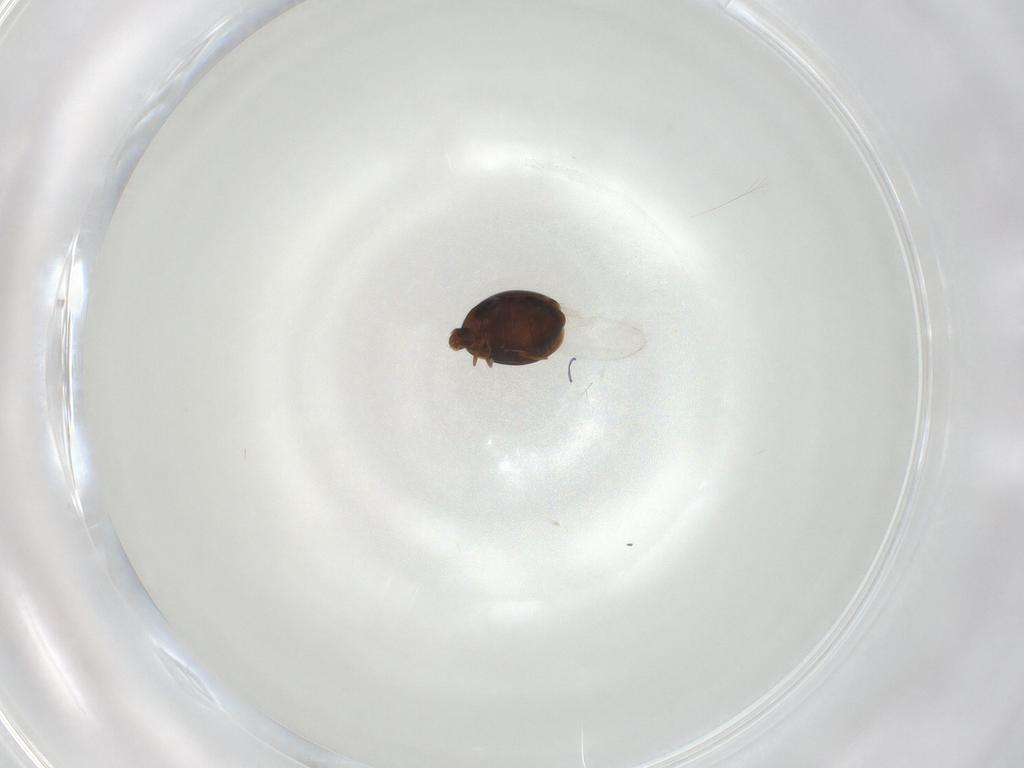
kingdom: Animalia
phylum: Arthropoda
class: Insecta
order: Coleoptera
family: Corylophidae
